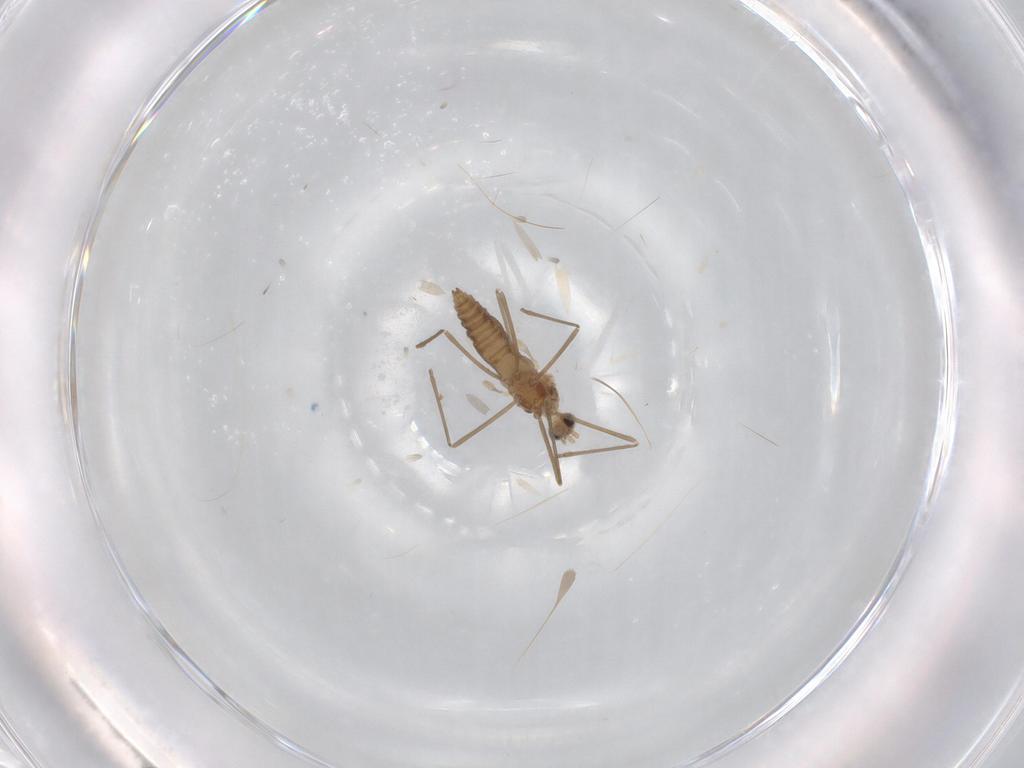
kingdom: Animalia
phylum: Arthropoda
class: Insecta
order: Diptera
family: Cecidomyiidae
